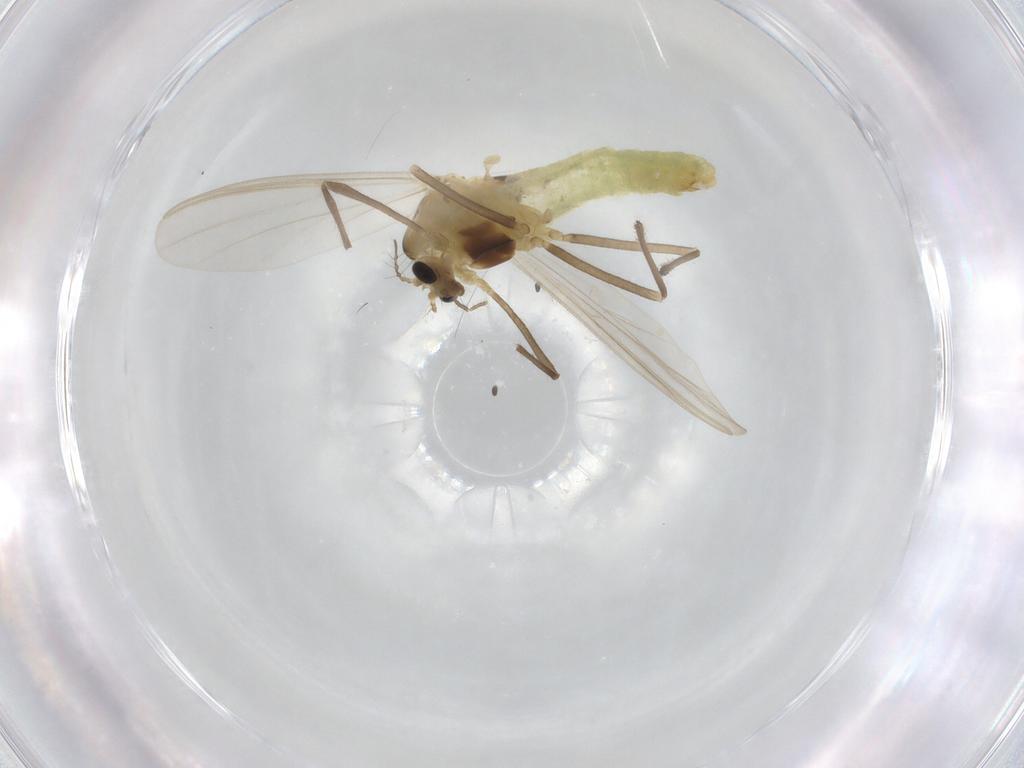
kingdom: Animalia
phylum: Arthropoda
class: Insecta
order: Diptera
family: Chironomidae
